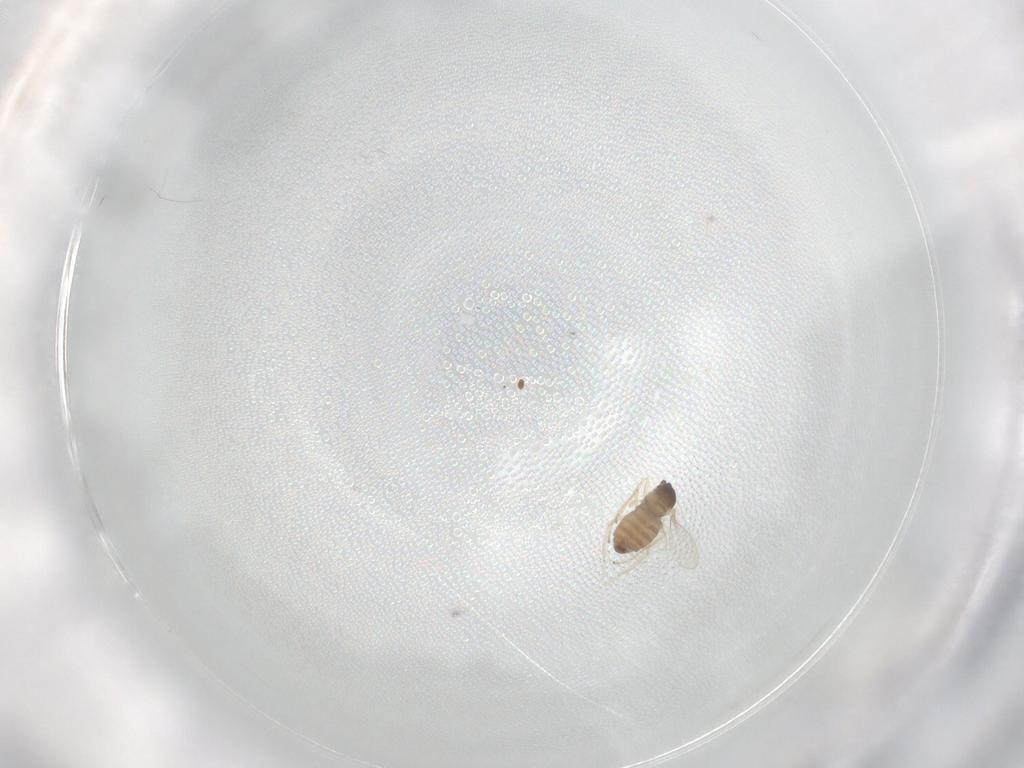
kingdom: Animalia
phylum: Arthropoda
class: Insecta
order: Diptera
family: Cecidomyiidae
